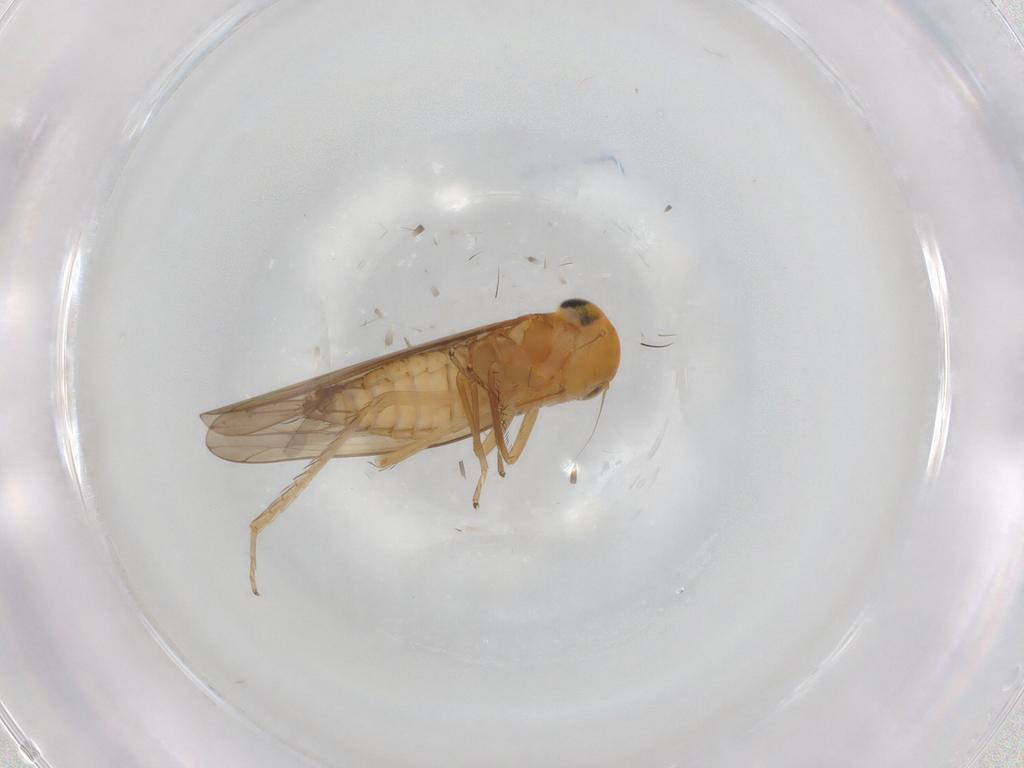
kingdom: Animalia
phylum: Arthropoda
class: Insecta
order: Hemiptera
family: Cicadellidae
